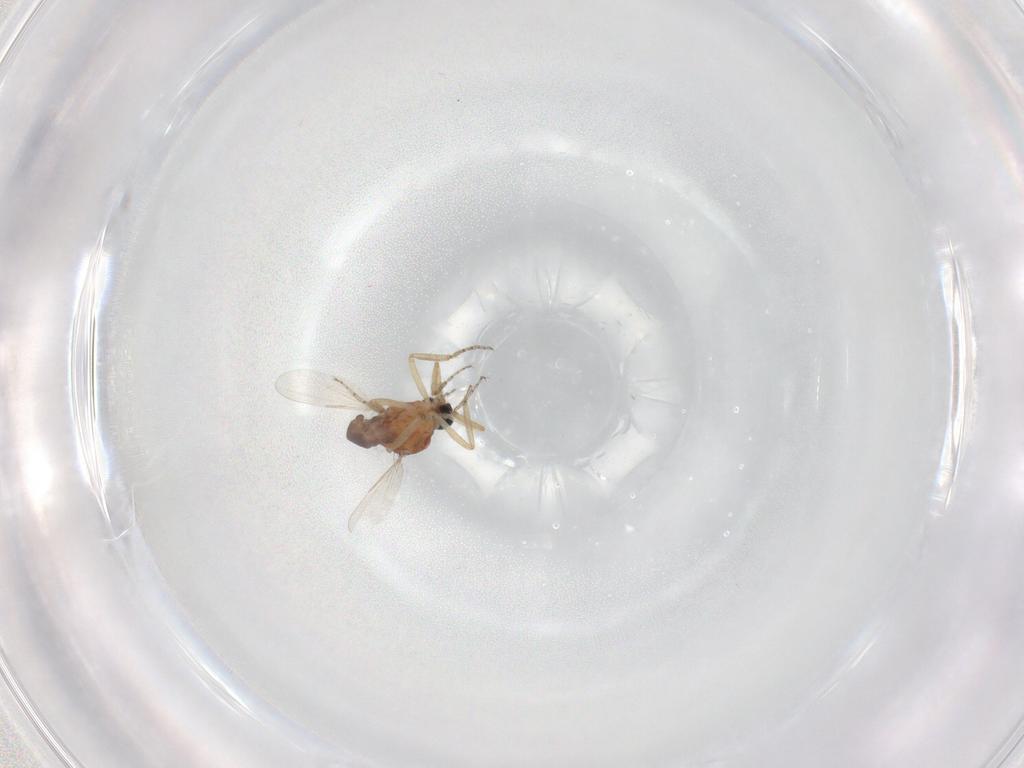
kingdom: Animalia
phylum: Arthropoda
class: Insecta
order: Diptera
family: Ceratopogonidae
